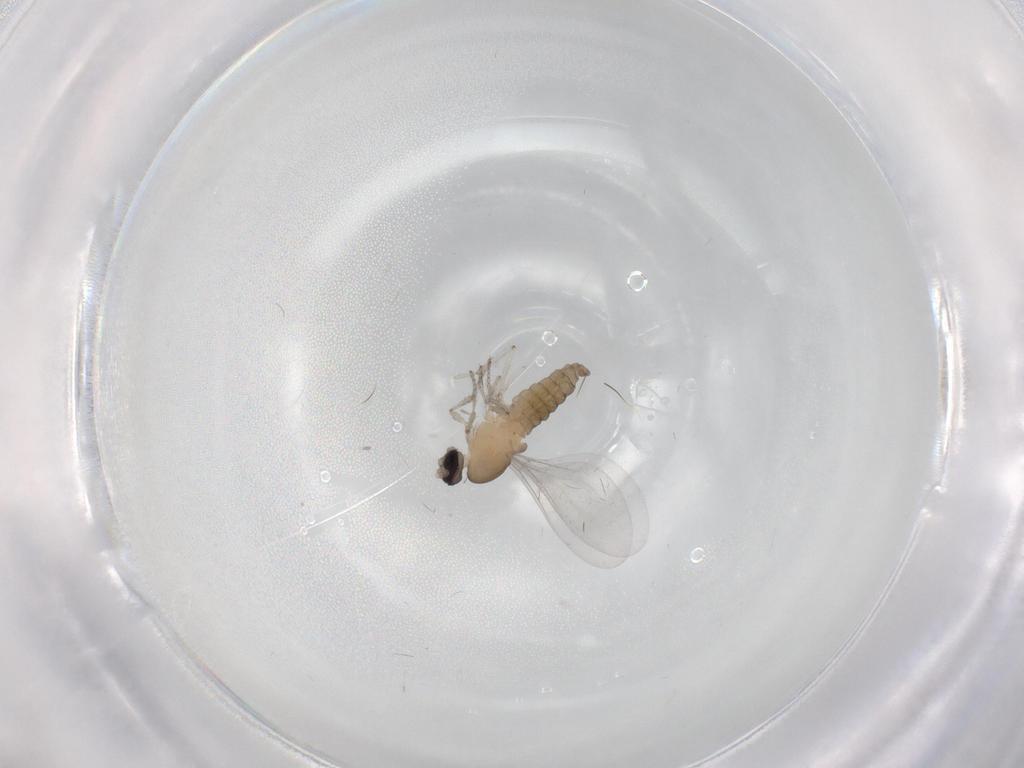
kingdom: Animalia
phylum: Arthropoda
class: Insecta
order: Diptera
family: Cecidomyiidae
